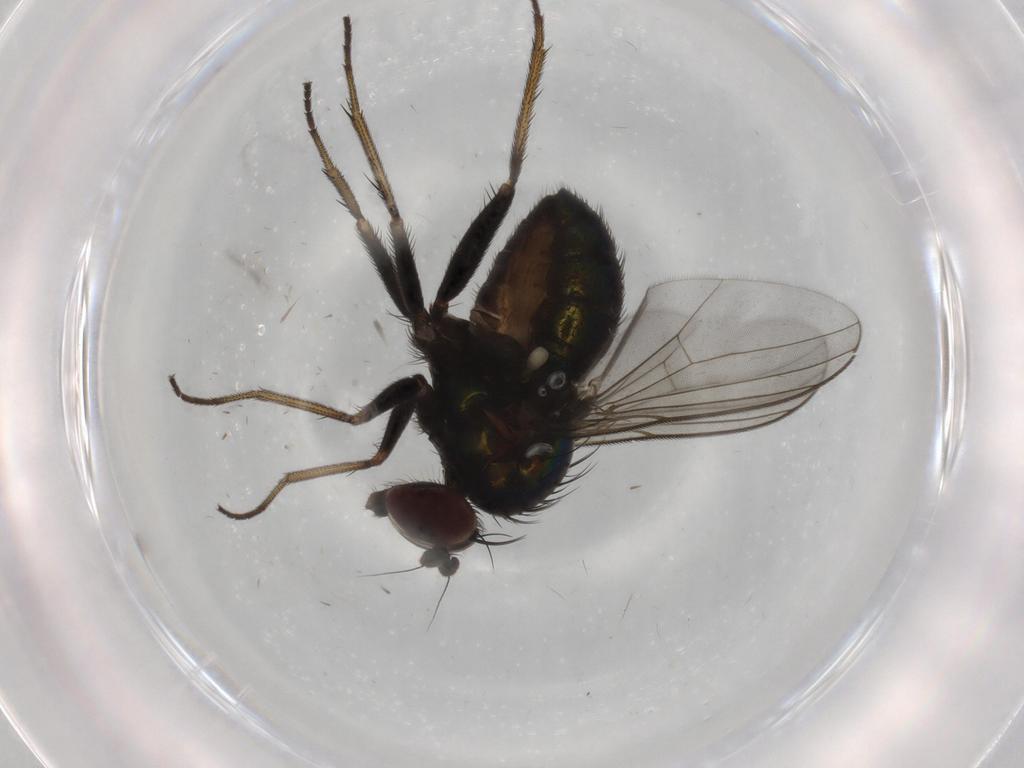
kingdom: Animalia
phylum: Arthropoda
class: Insecta
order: Diptera
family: Dolichopodidae
